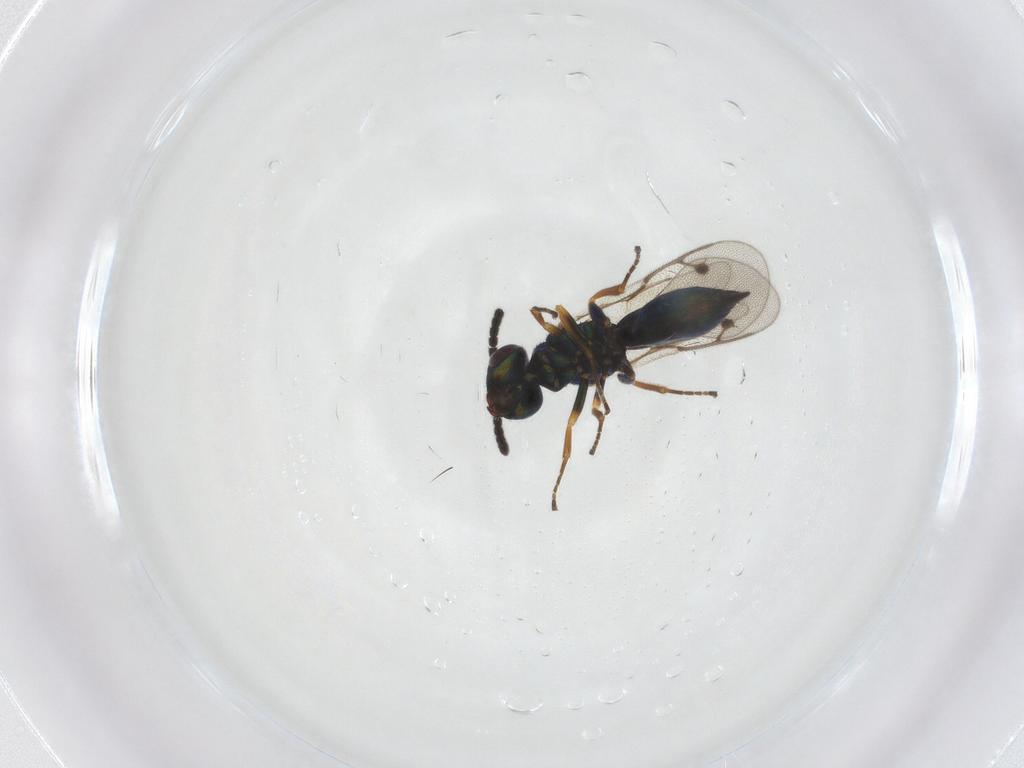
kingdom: Animalia
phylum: Arthropoda
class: Insecta
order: Hymenoptera
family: Braconidae
